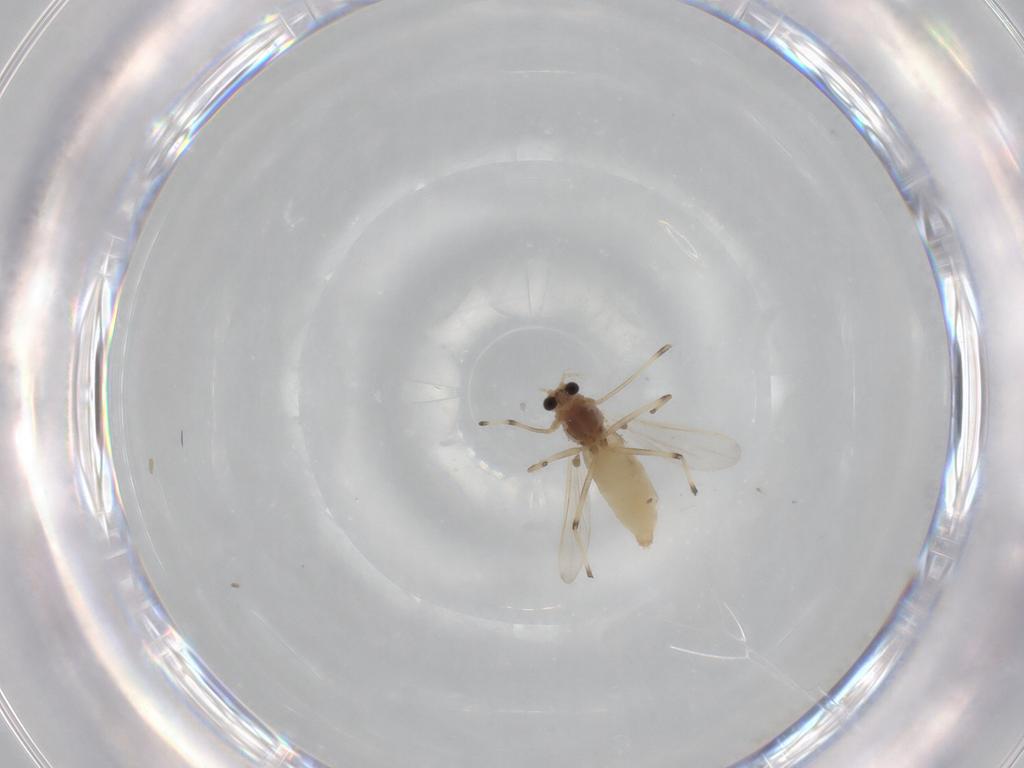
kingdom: Animalia
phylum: Arthropoda
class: Insecta
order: Diptera
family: Chironomidae
